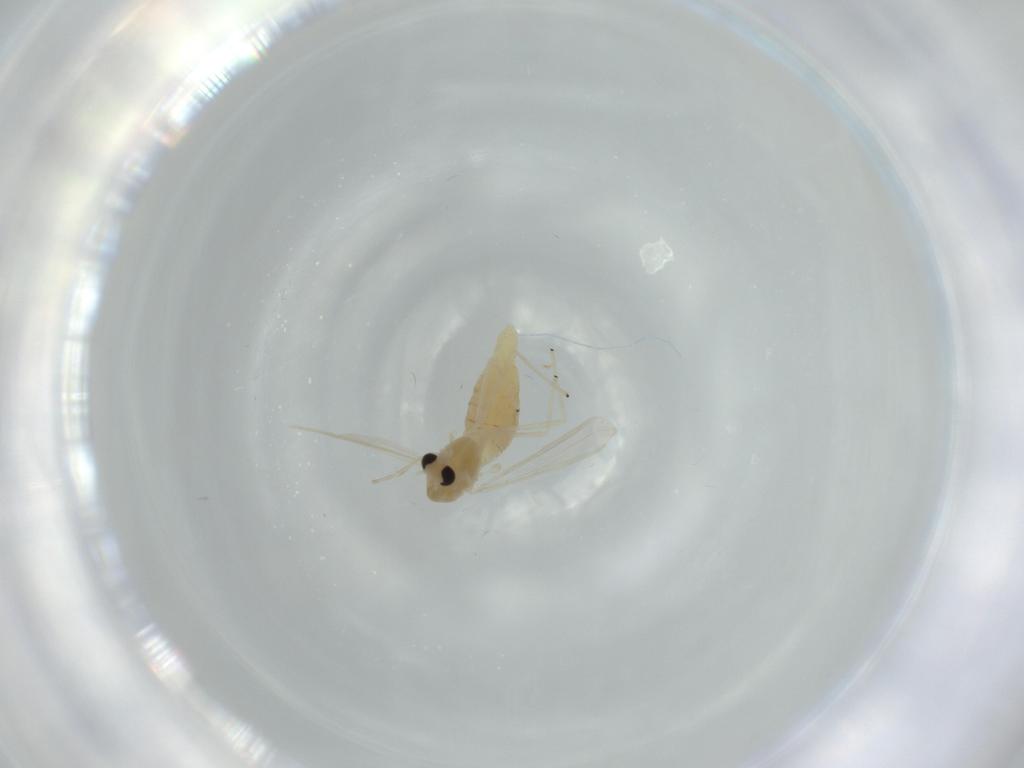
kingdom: Animalia
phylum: Arthropoda
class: Insecta
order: Diptera
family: Chironomidae
